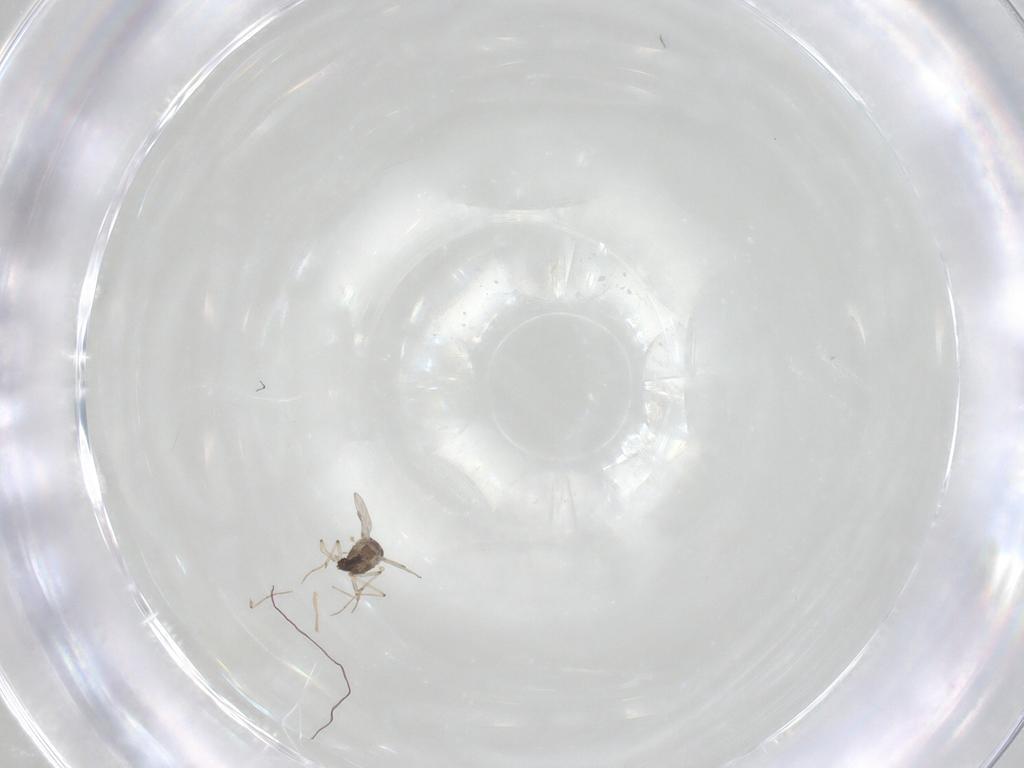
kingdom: Animalia
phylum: Arthropoda
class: Insecta
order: Diptera
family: Chironomidae
